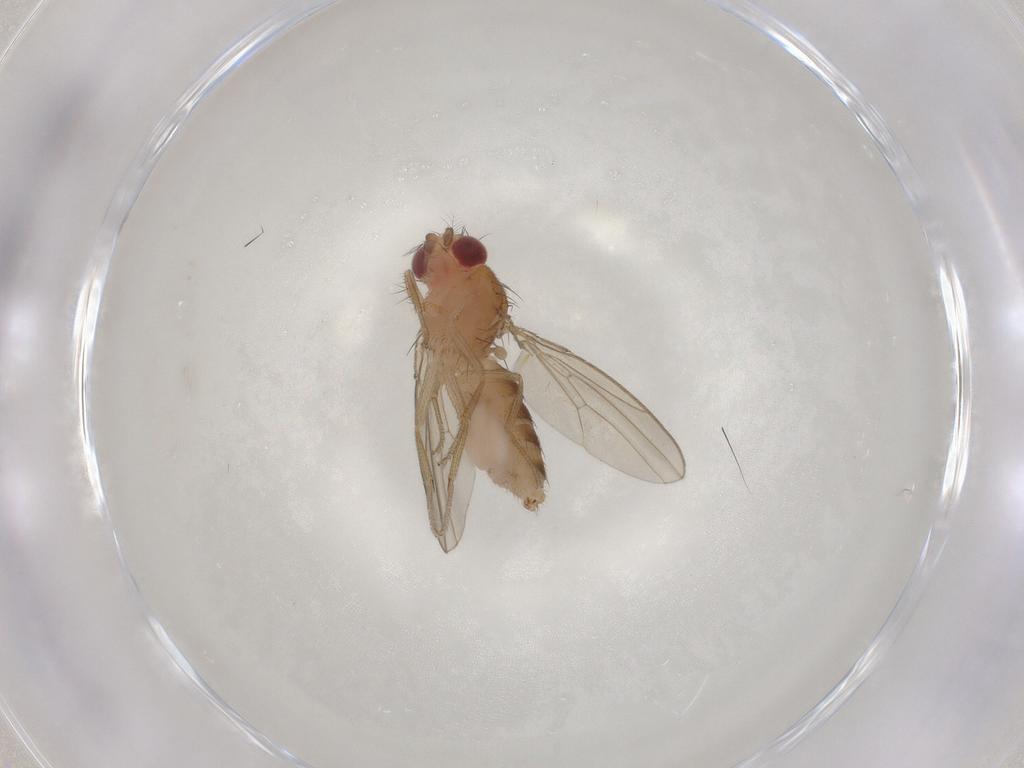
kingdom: Animalia
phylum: Arthropoda
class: Insecta
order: Diptera
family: Drosophilidae
